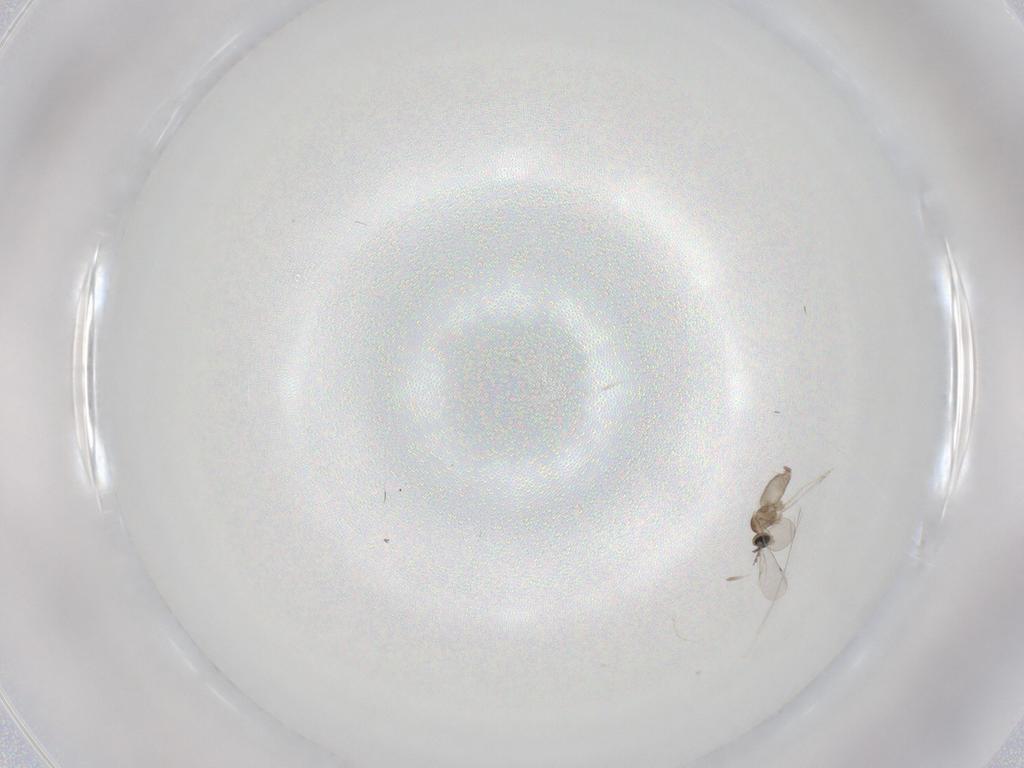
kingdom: Animalia
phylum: Arthropoda
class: Insecta
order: Diptera
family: Cecidomyiidae
